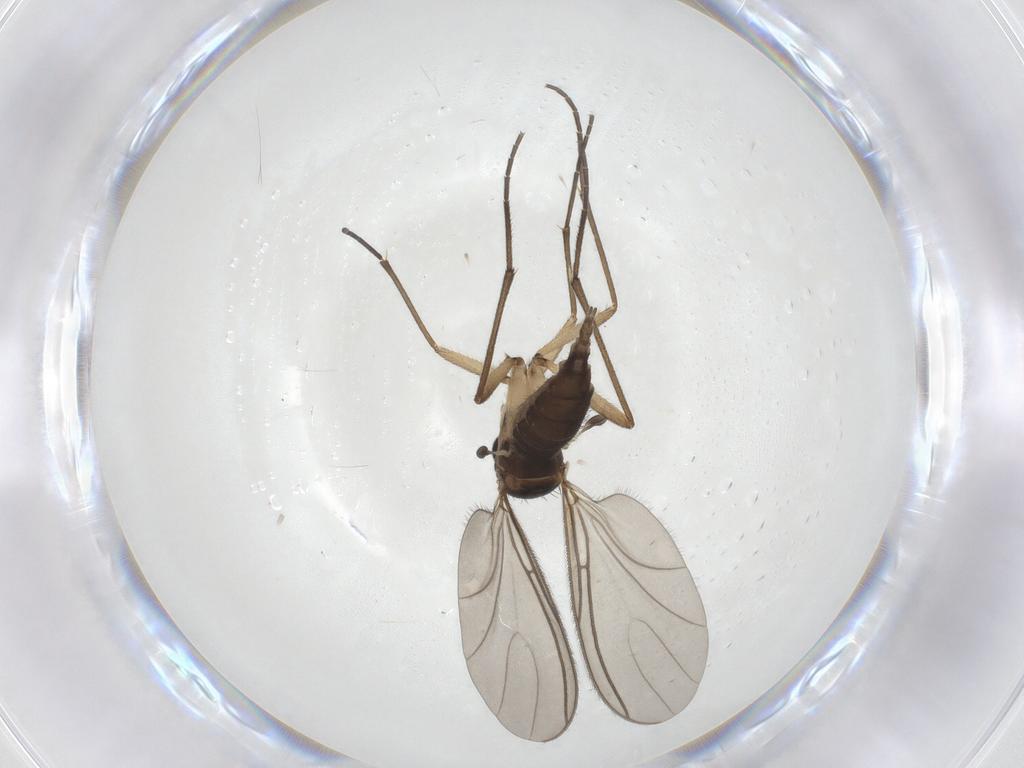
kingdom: Animalia
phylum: Arthropoda
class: Insecta
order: Diptera
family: Sciaridae
